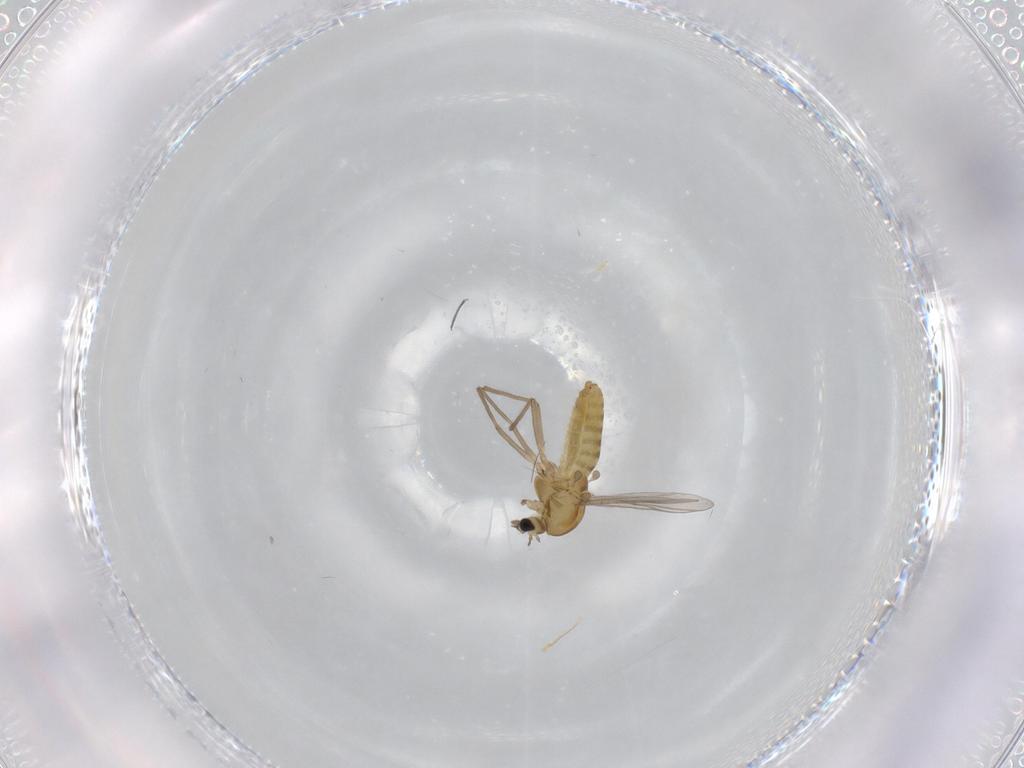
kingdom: Animalia
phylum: Arthropoda
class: Insecta
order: Diptera
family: Chironomidae
